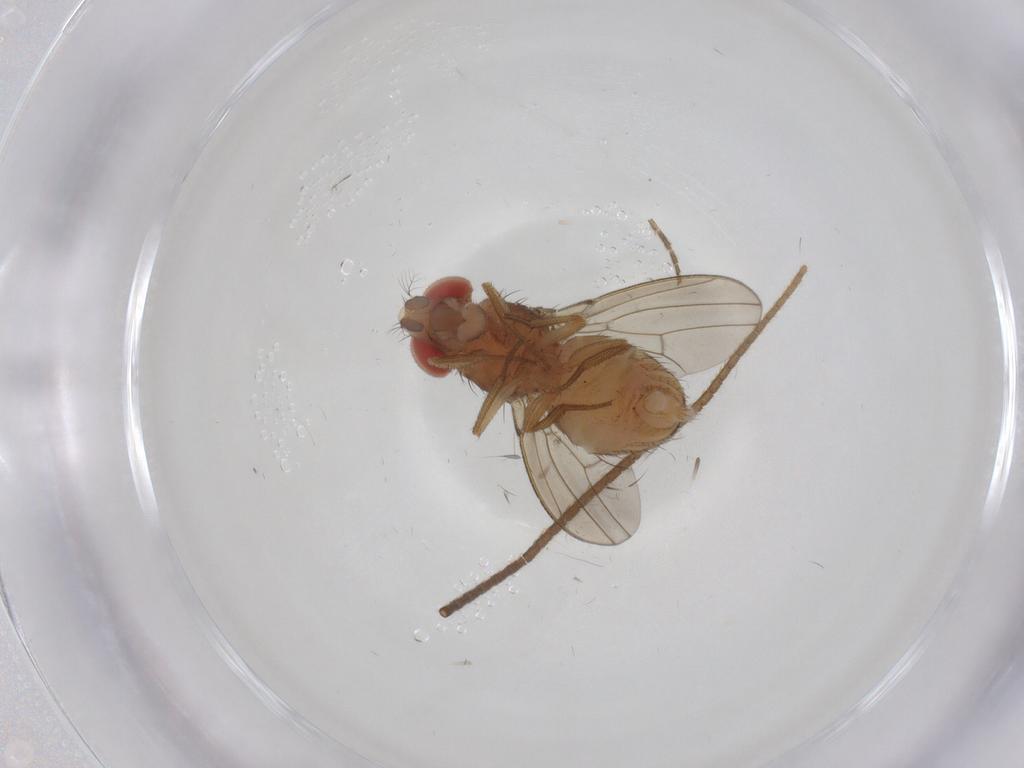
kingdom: Animalia
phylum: Arthropoda
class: Insecta
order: Diptera
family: Drosophilidae
